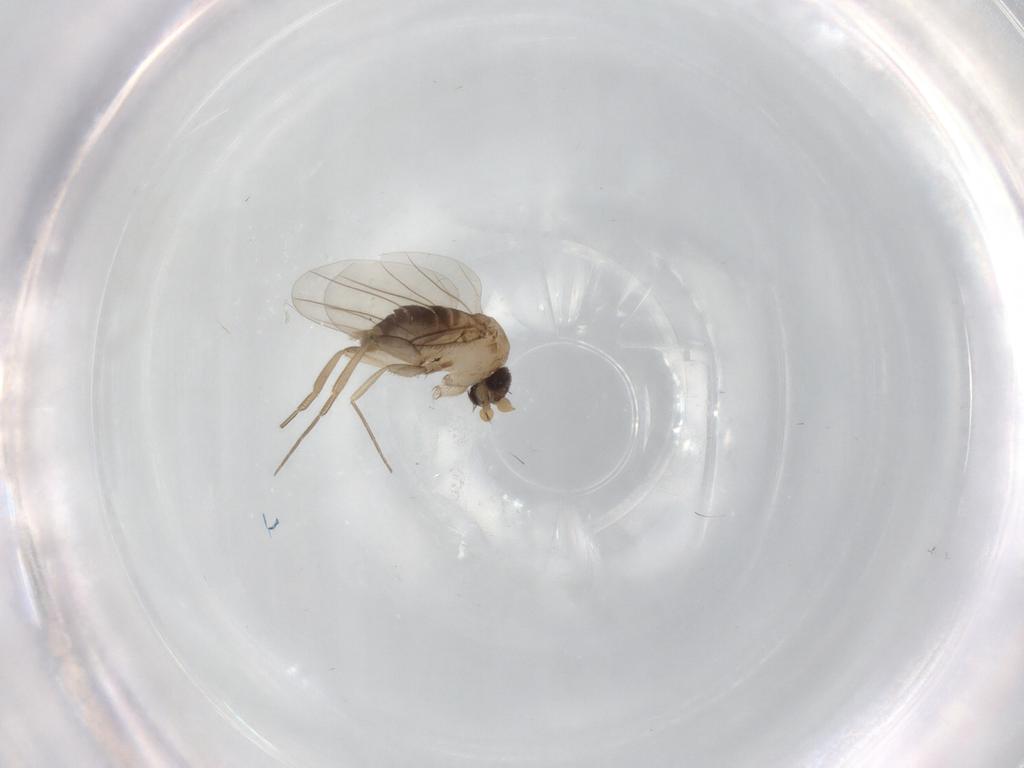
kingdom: Animalia
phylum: Arthropoda
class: Insecta
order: Diptera
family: Phoridae
